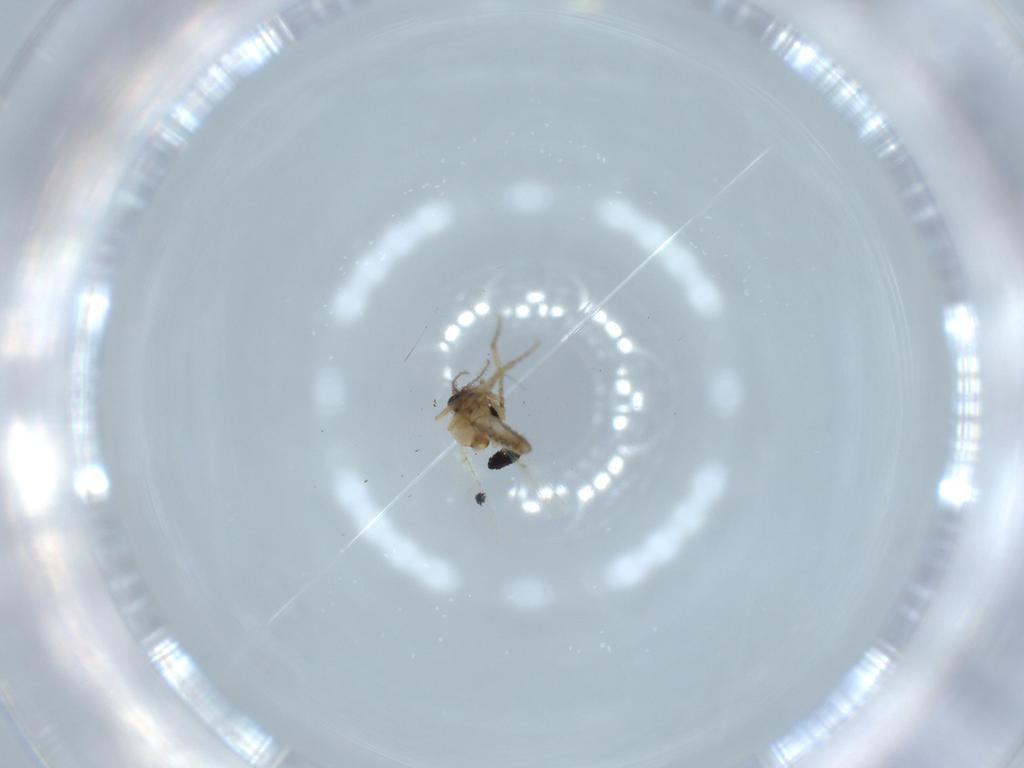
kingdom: Animalia
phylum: Arthropoda
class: Insecta
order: Diptera
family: Ceratopogonidae
